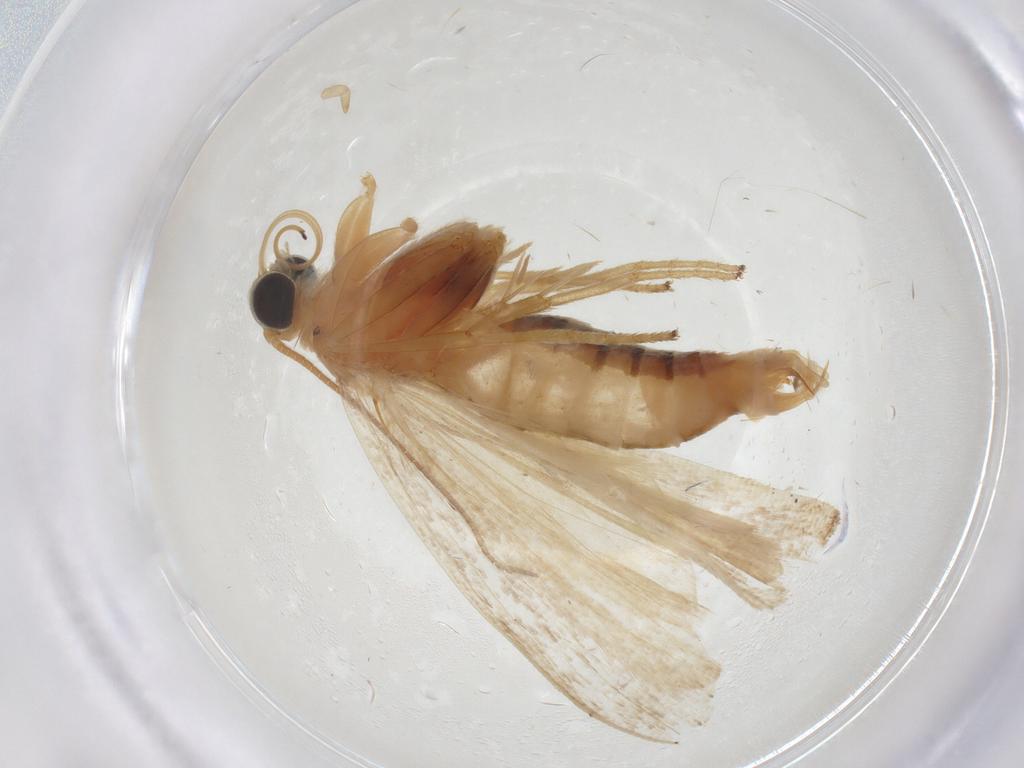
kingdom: Animalia
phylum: Arthropoda
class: Insecta
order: Lepidoptera
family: Pyralidae
